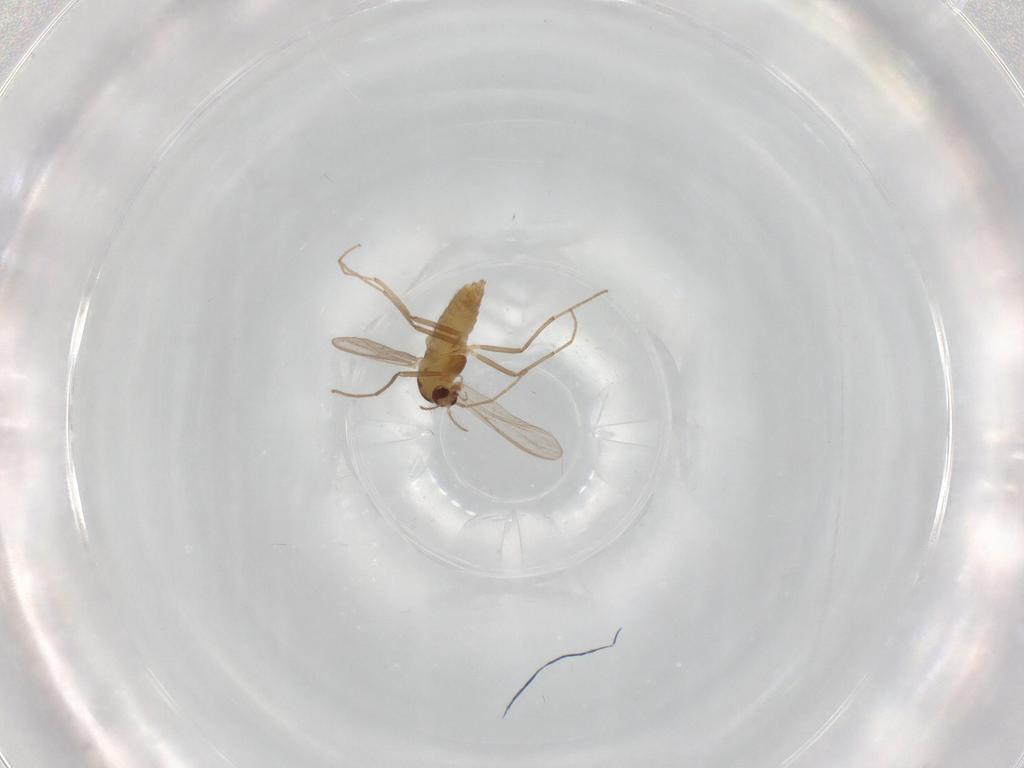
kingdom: Animalia
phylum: Arthropoda
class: Insecta
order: Diptera
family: Chironomidae
